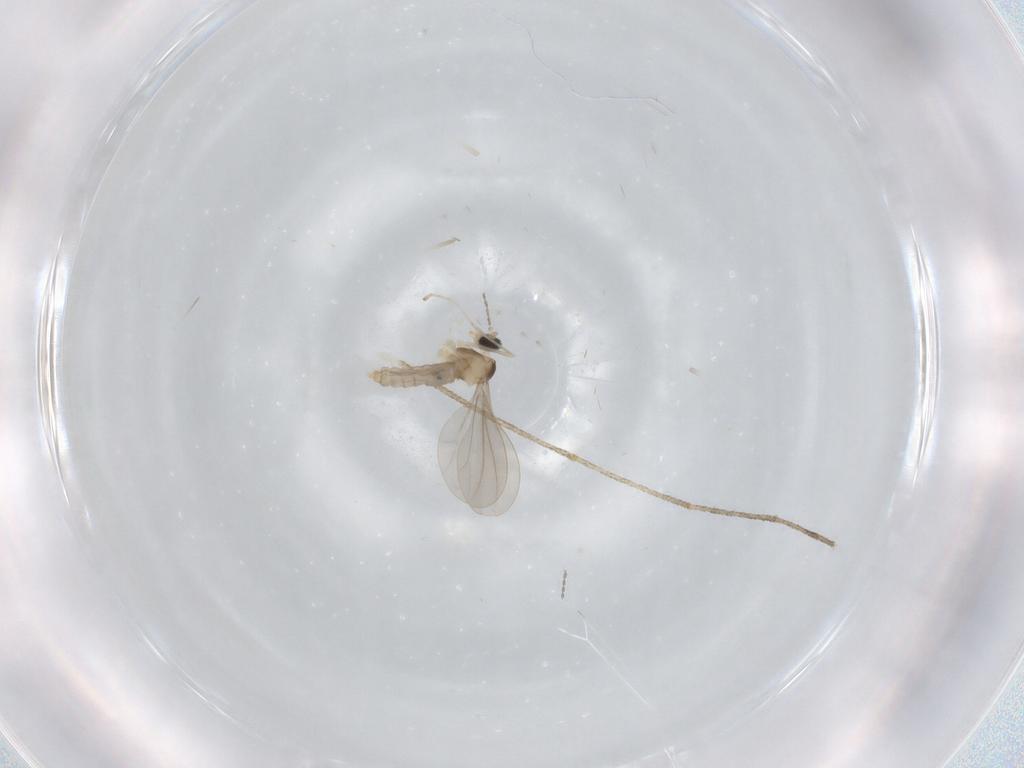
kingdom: Animalia
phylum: Arthropoda
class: Insecta
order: Diptera
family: Cecidomyiidae
